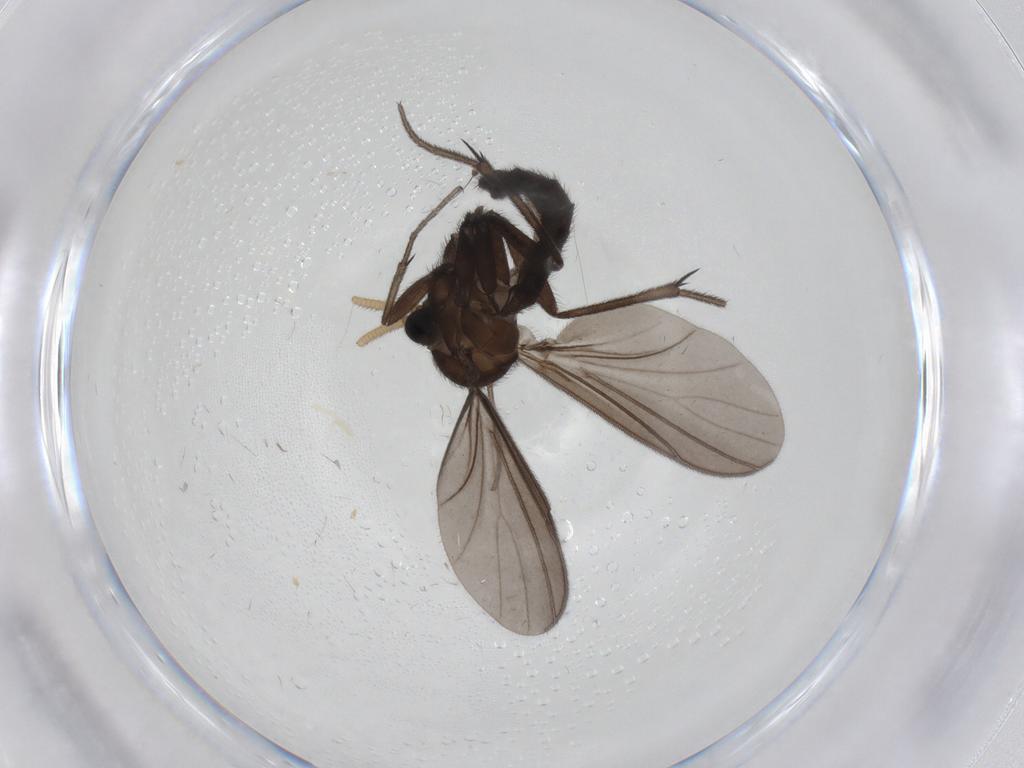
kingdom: Animalia
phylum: Arthropoda
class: Insecta
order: Diptera
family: Mycetophilidae
